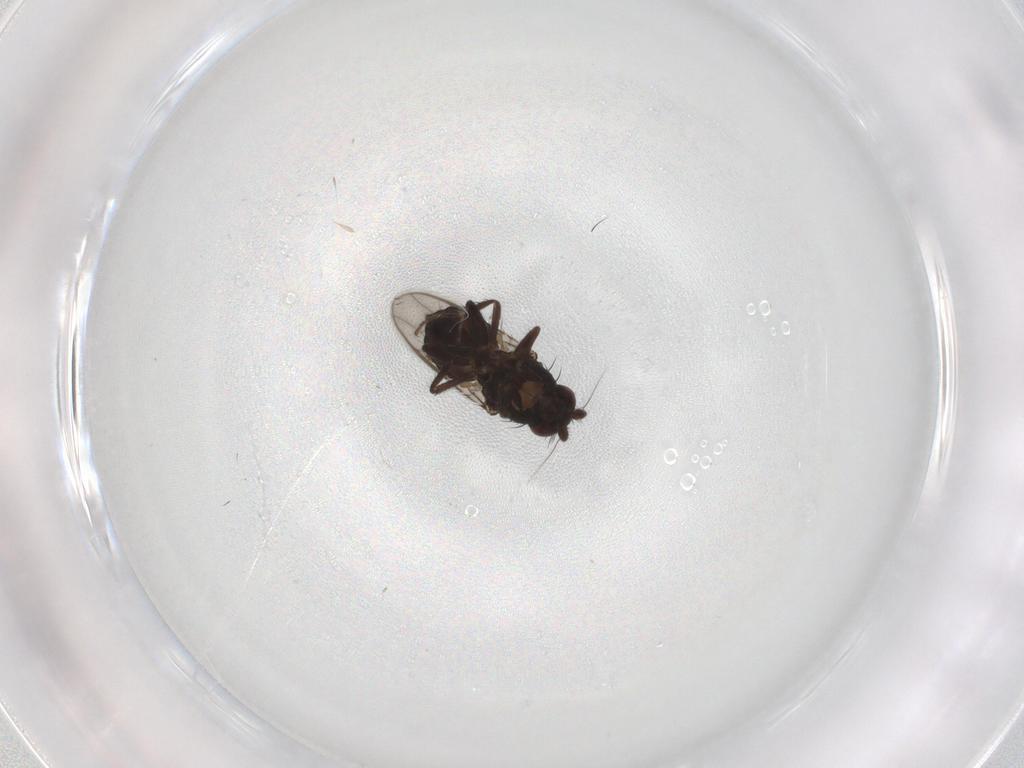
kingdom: Animalia
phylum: Arthropoda
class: Insecta
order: Diptera
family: Sphaeroceridae
